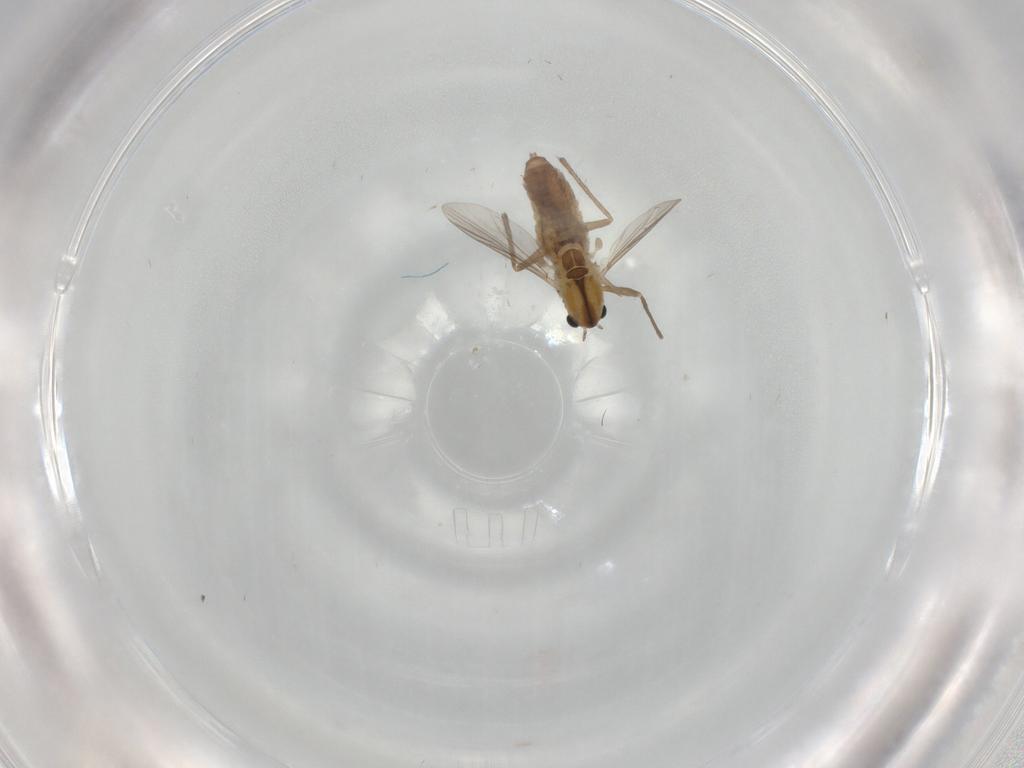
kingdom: Animalia
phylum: Arthropoda
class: Insecta
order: Diptera
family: Chironomidae
